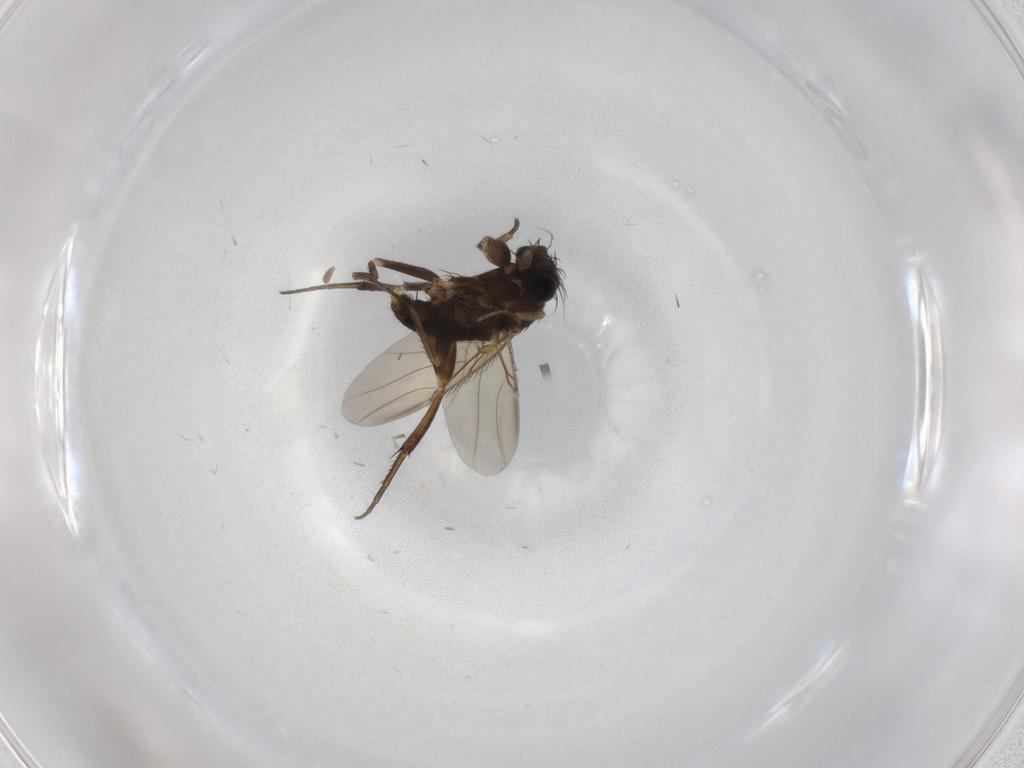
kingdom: Animalia
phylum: Arthropoda
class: Insecta
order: Diptera
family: Phoridae
